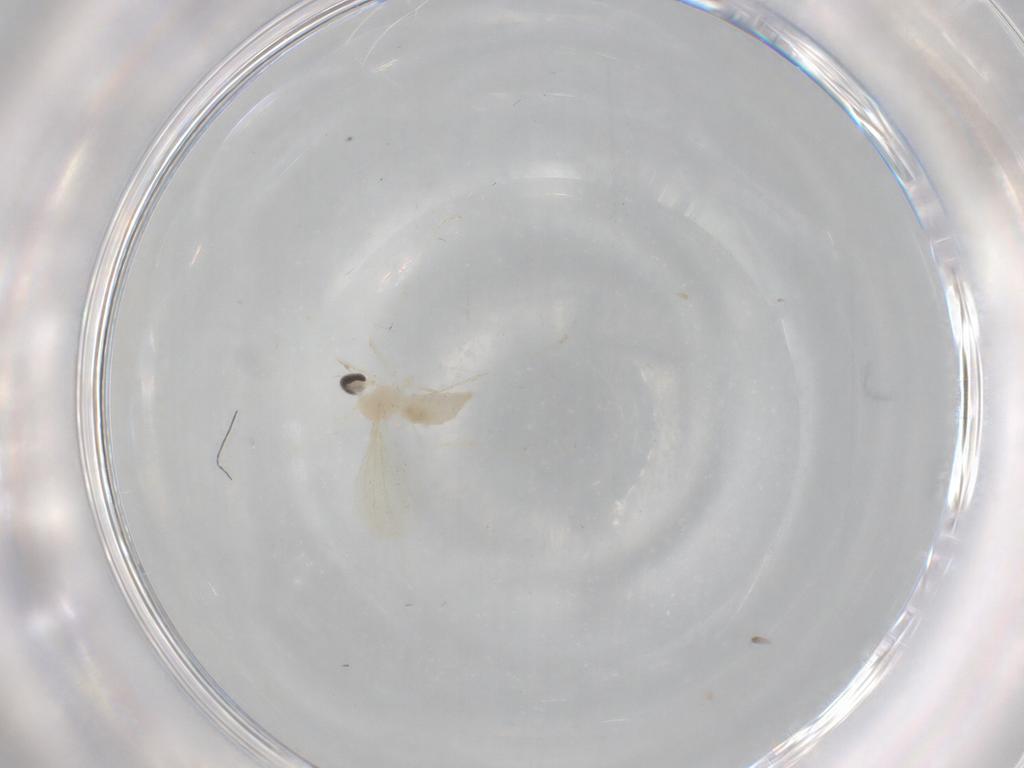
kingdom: Animalia
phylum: Arthropoda
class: Insecta
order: Diptera
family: Cecidomyiidae
